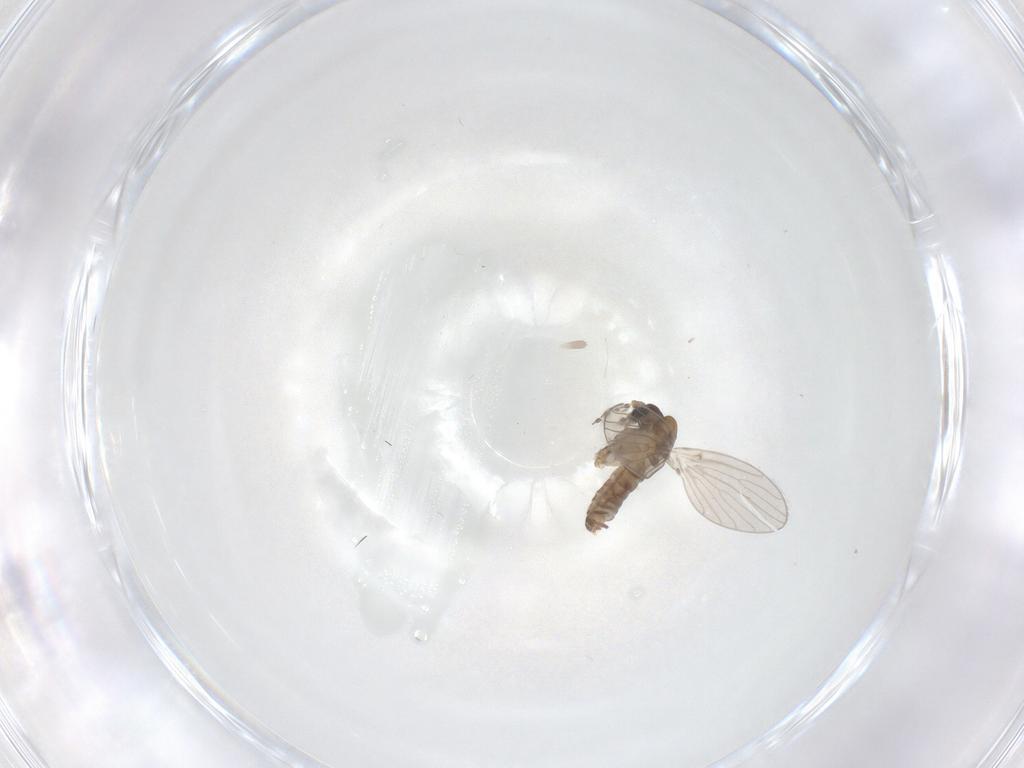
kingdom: Animalia
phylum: Arthropoda
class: Insecta
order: Diptera
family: Psychodidae
